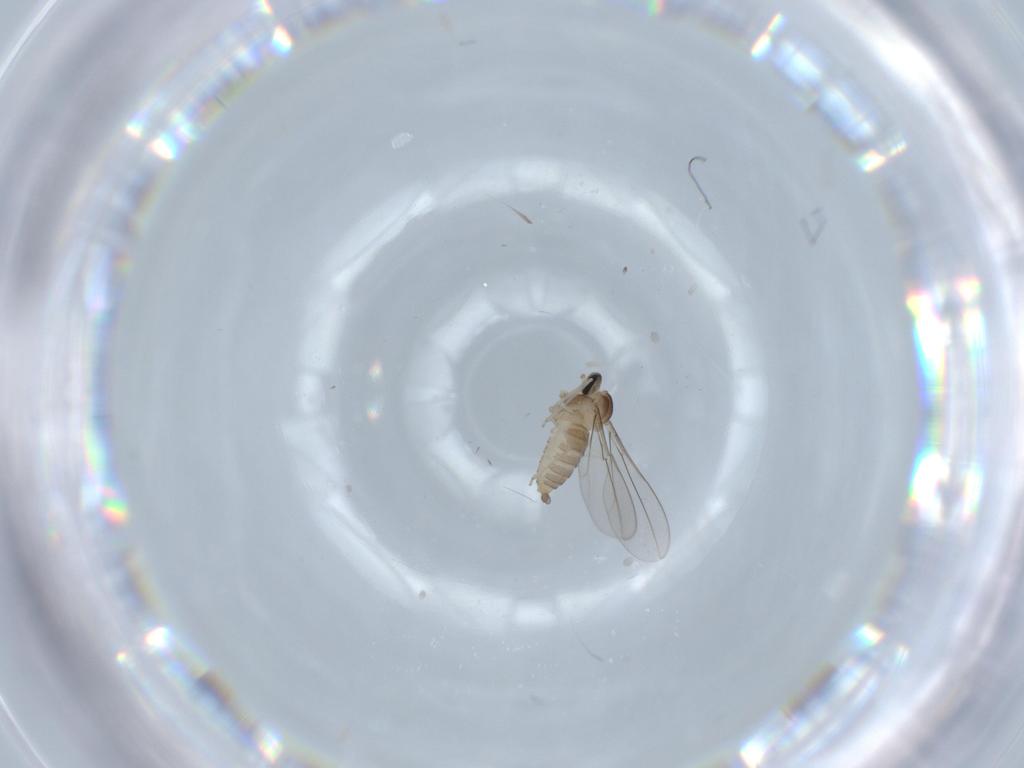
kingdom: Animalia
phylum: Arthropoda
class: Insecta
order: Diptera
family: Cecidomyiidae
